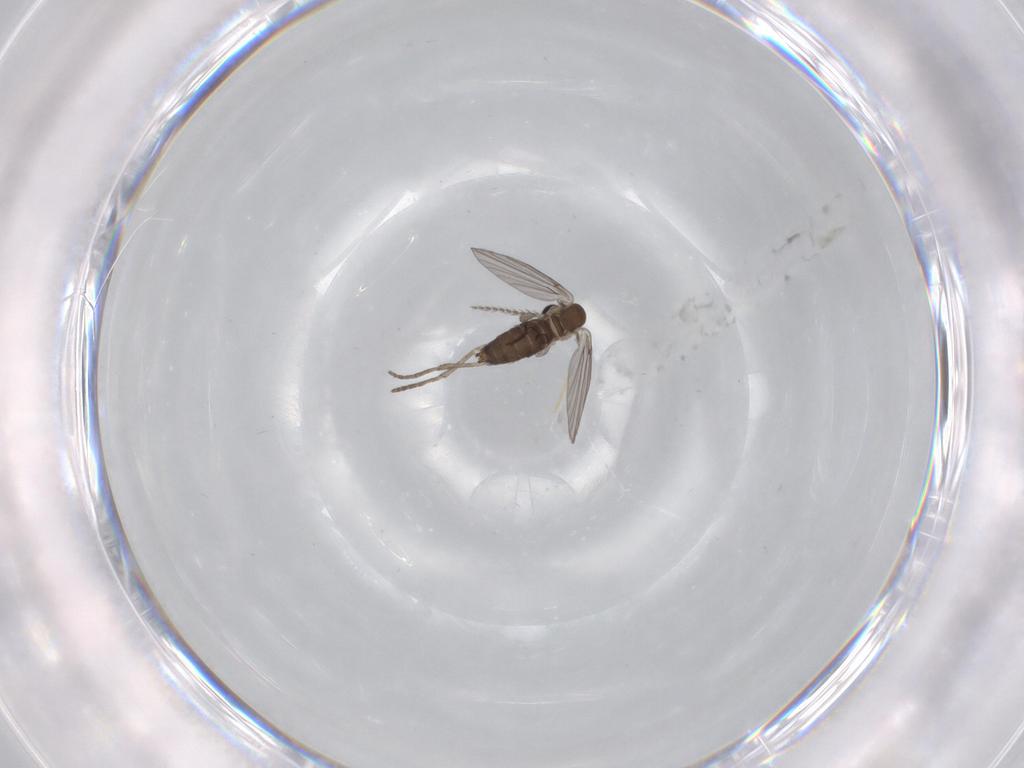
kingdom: Animalia
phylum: Arthropoda
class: Insecta
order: Diptera
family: Psychodidae
